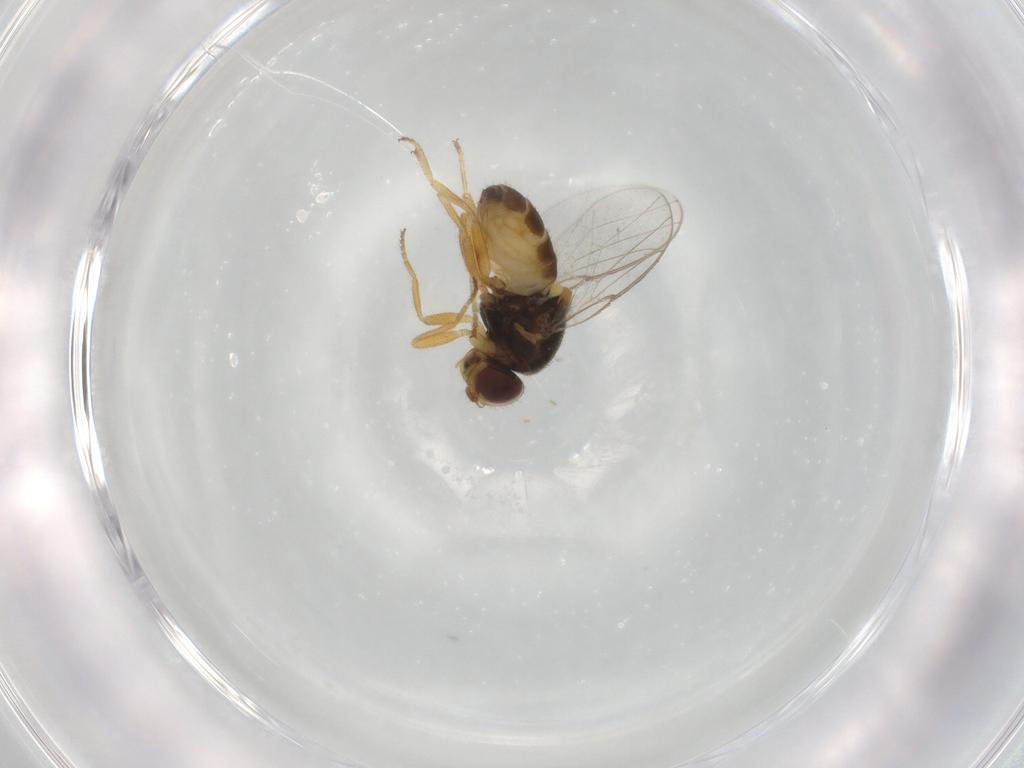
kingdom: Animalia
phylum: Arthropoda
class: Insecta
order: Diptera
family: Chloropidae
